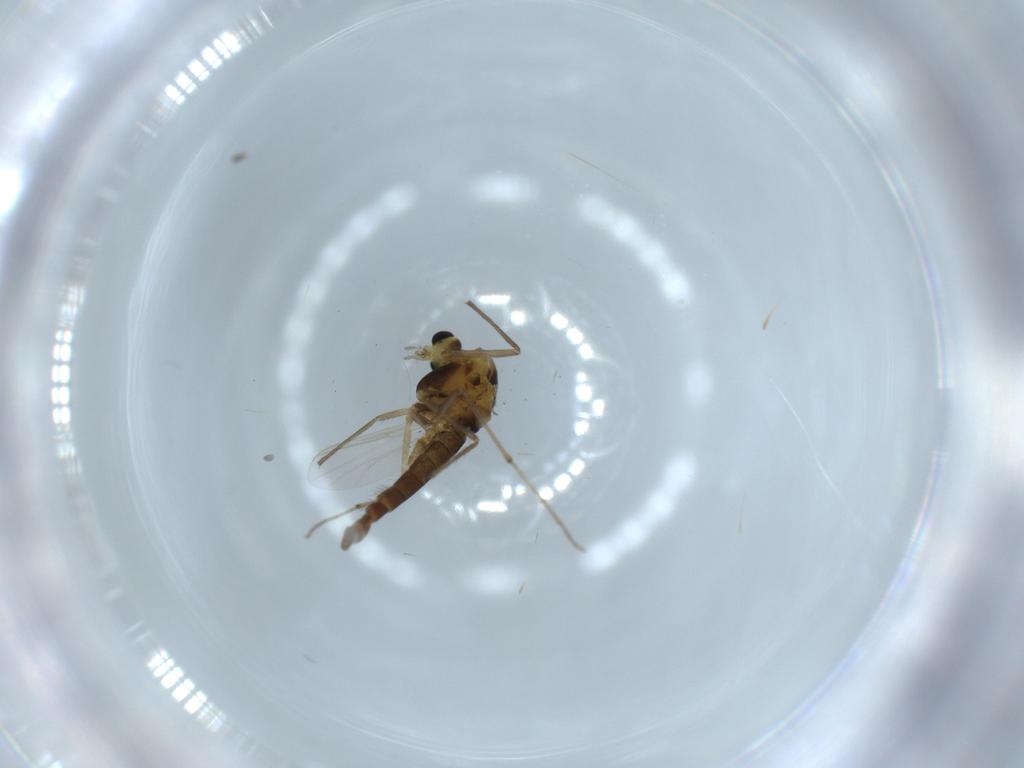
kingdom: Animalia
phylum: Arthropoda
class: Insecta
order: Diptera
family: Chironomidae
